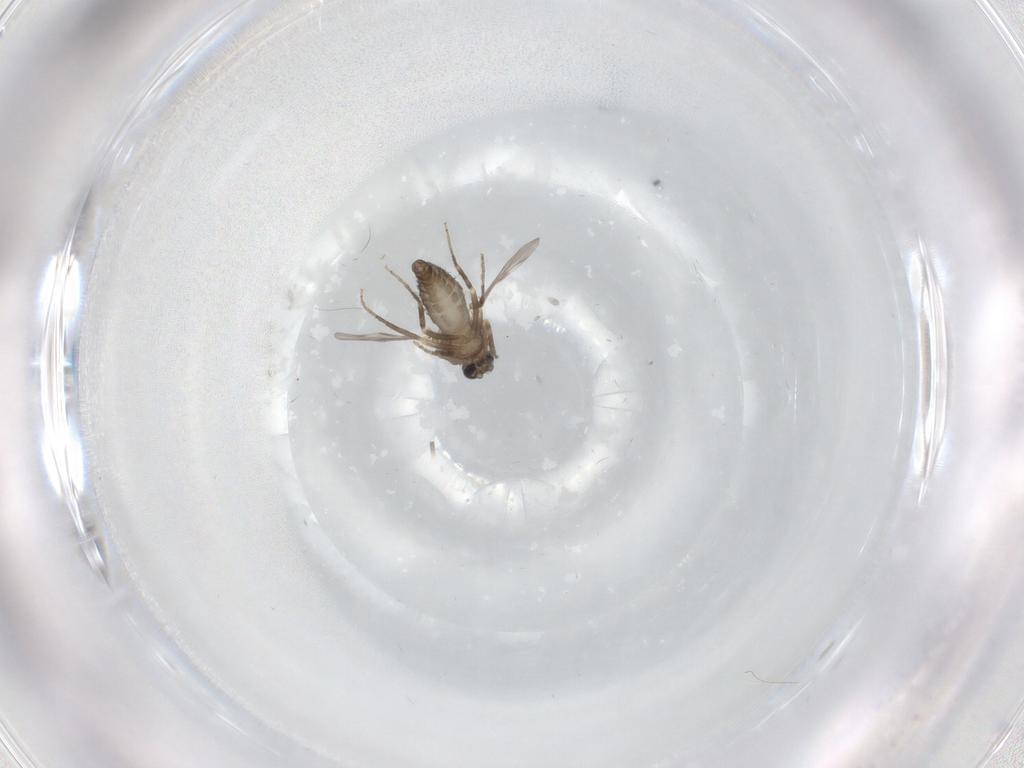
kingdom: Animalia
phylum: Arthropoda
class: Insecta
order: Diptera
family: Ceratopogonidae
